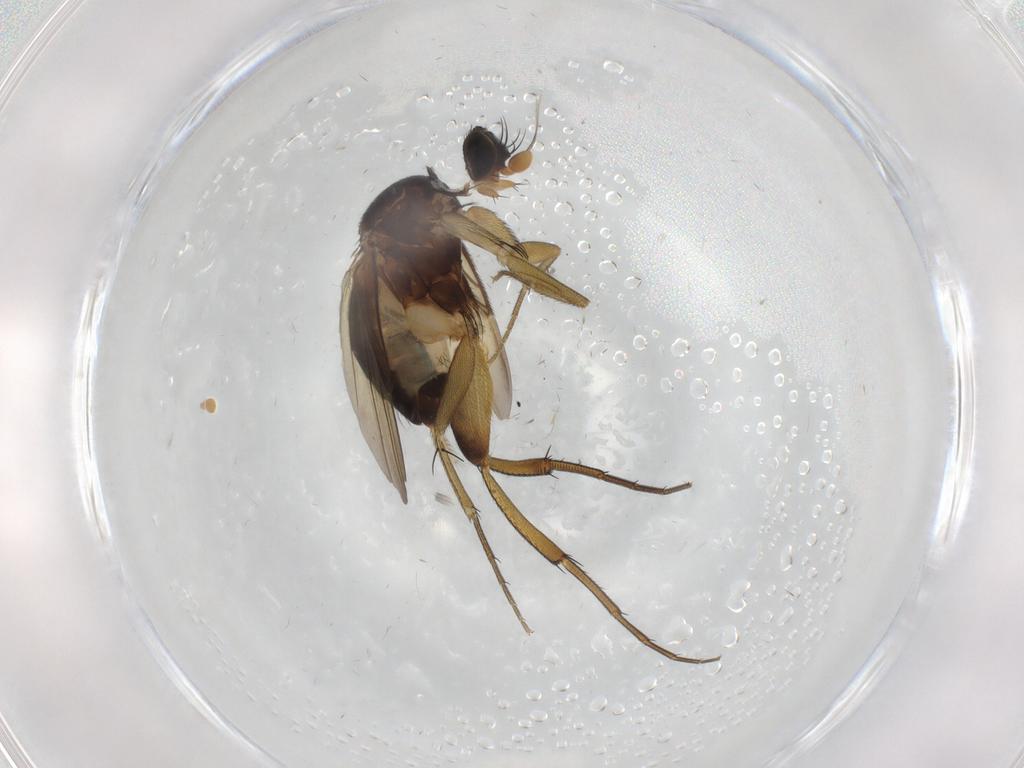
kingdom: Animalia
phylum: Arthropoda
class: Insecta
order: Diptera
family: Phoridae
